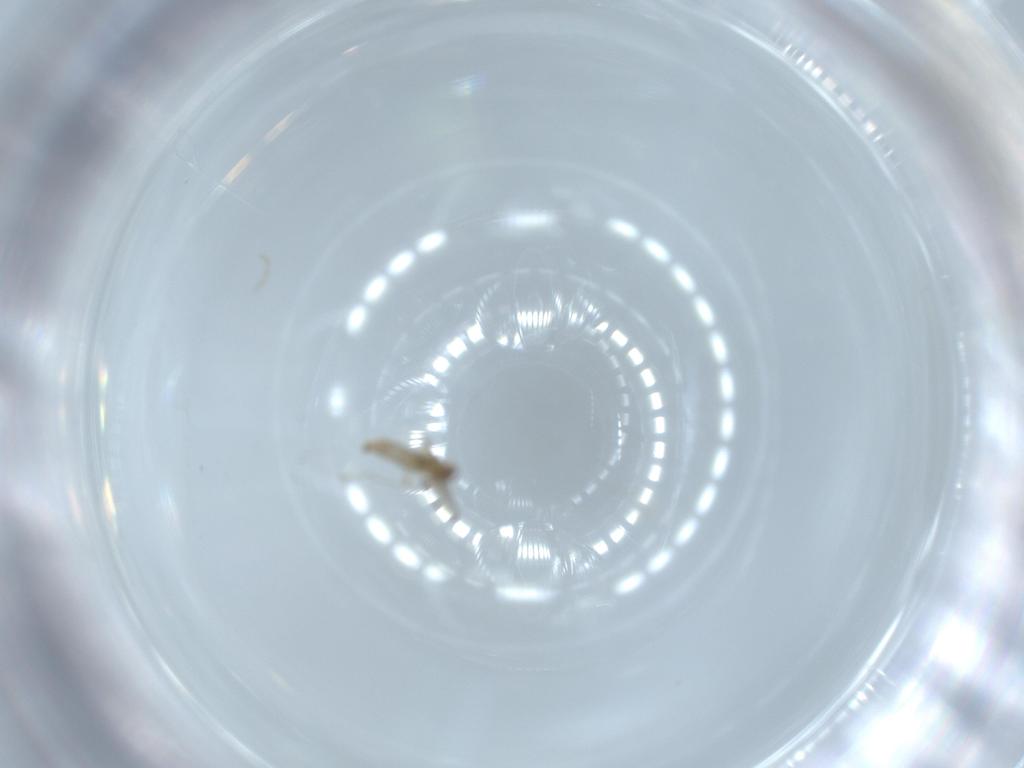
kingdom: Animalia
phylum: Arthropoda
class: Insecta
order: Diptera
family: Cecidomyiidae
